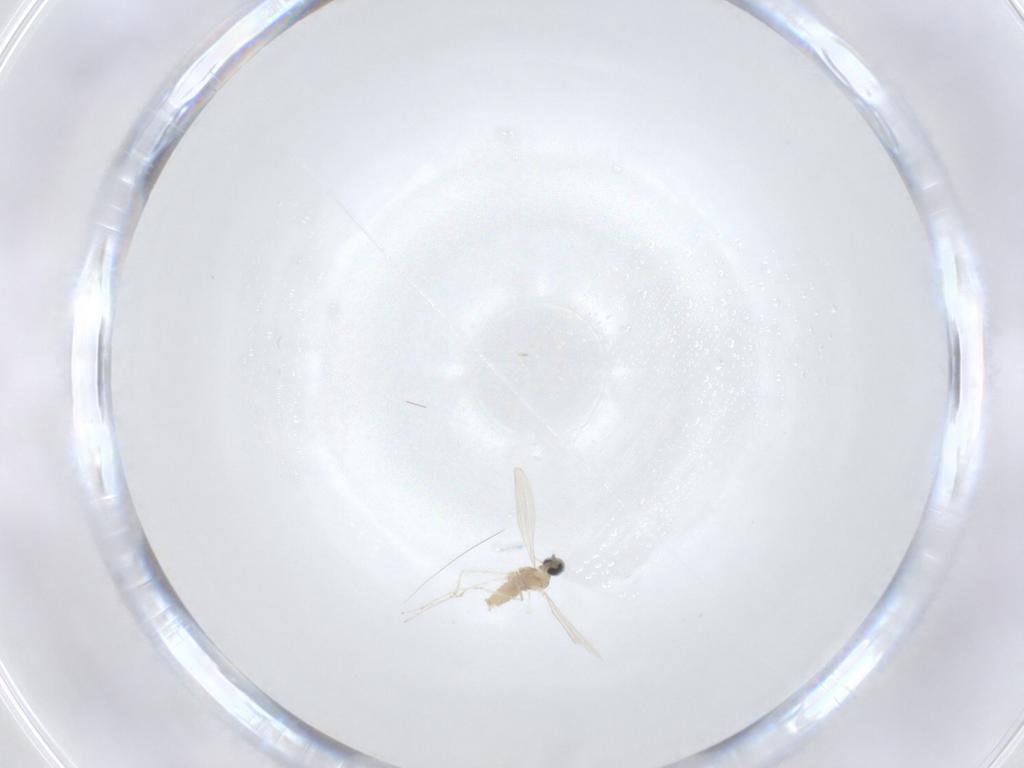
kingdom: Animalia
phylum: Arthropoda
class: Insecta
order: Diptera
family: Cecidomyiidae
